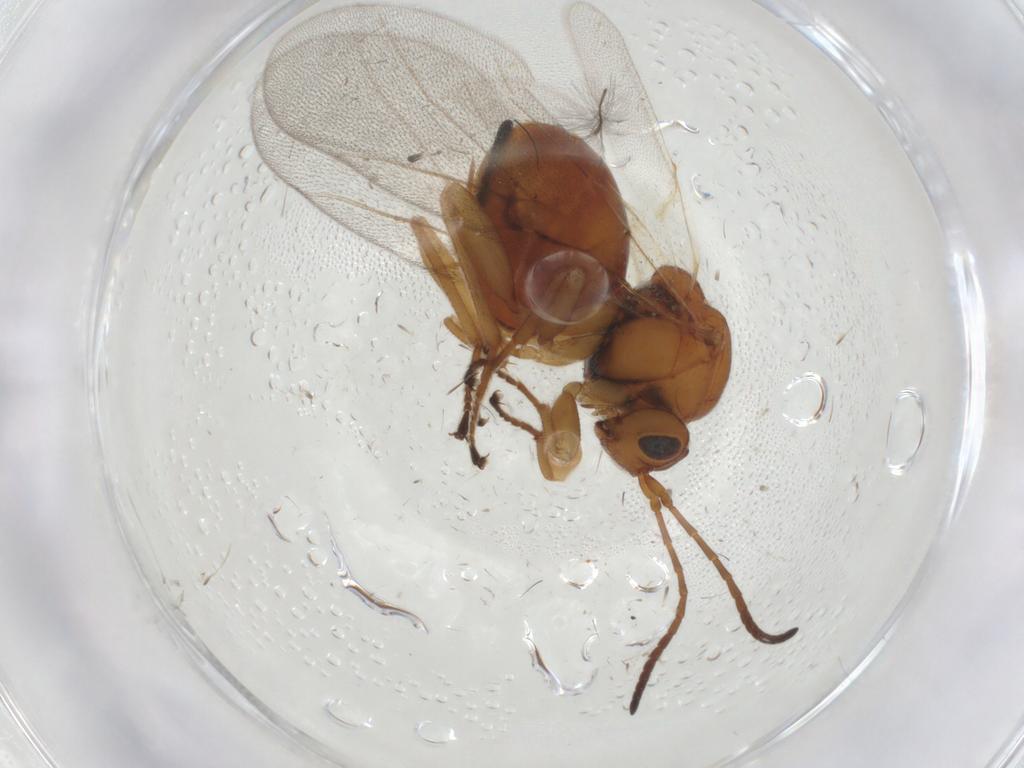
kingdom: Animalia
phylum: Arthropoda
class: Insecta
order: Hymenoptera
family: Cynipidae
